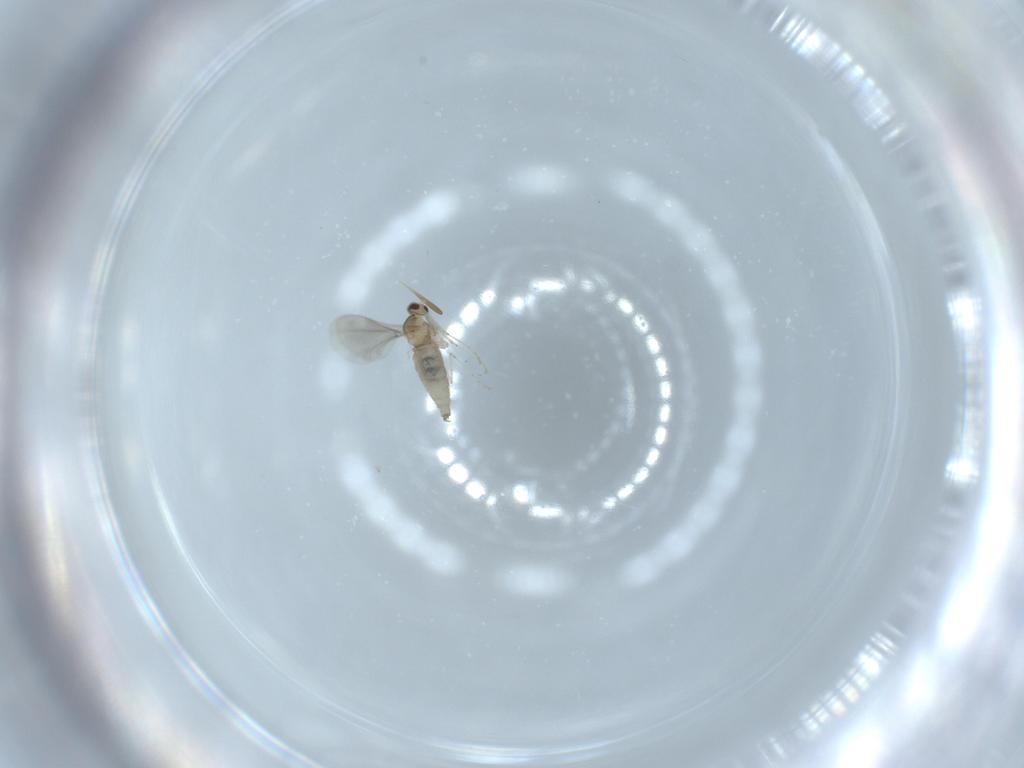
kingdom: Animalia
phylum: Arthropoda
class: Insecta
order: Diptera
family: Cecidomyiidae
